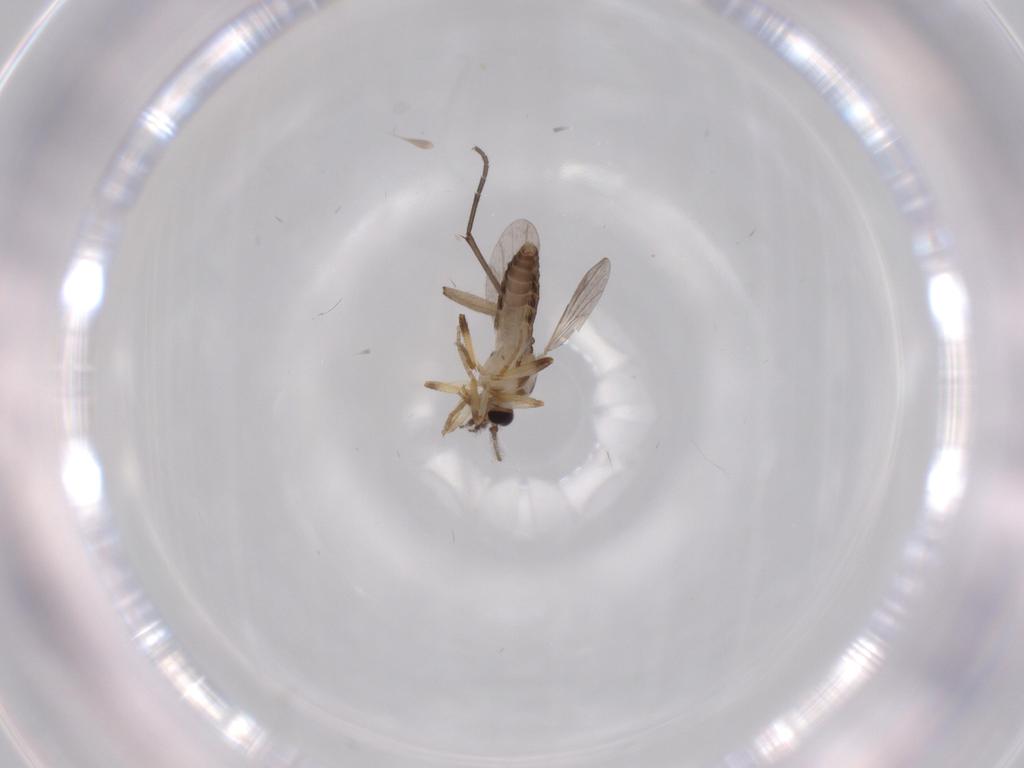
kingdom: Animalia
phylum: Arthropoda
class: Insecta
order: Diptera
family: Ceratopogonidae
